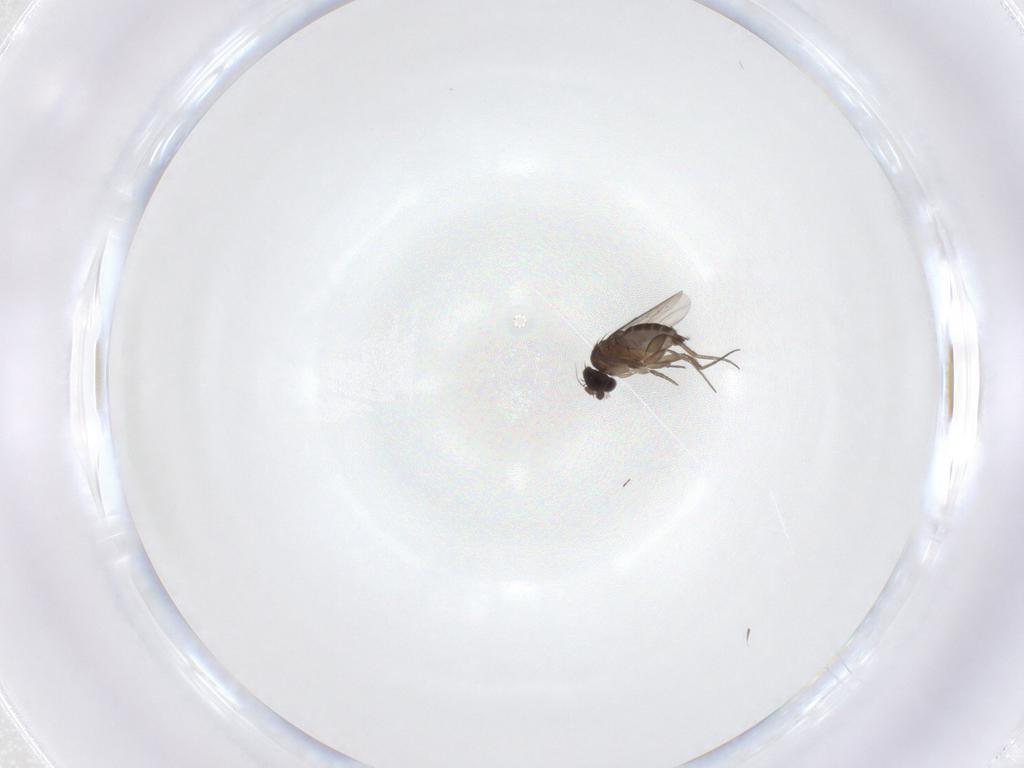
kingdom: Animalia
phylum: Arthropoda
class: Insecta
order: Diptera
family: Phoridae
